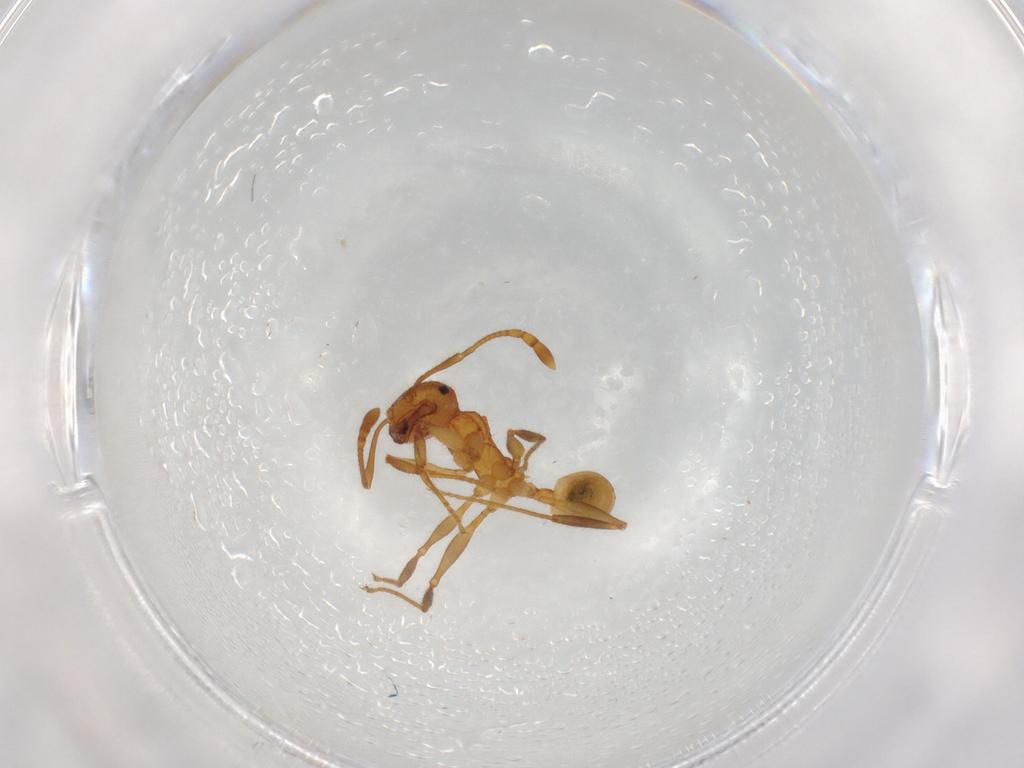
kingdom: Animalia
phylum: Arthropoda
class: Insecta
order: Hymenoptera
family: Formicidae
